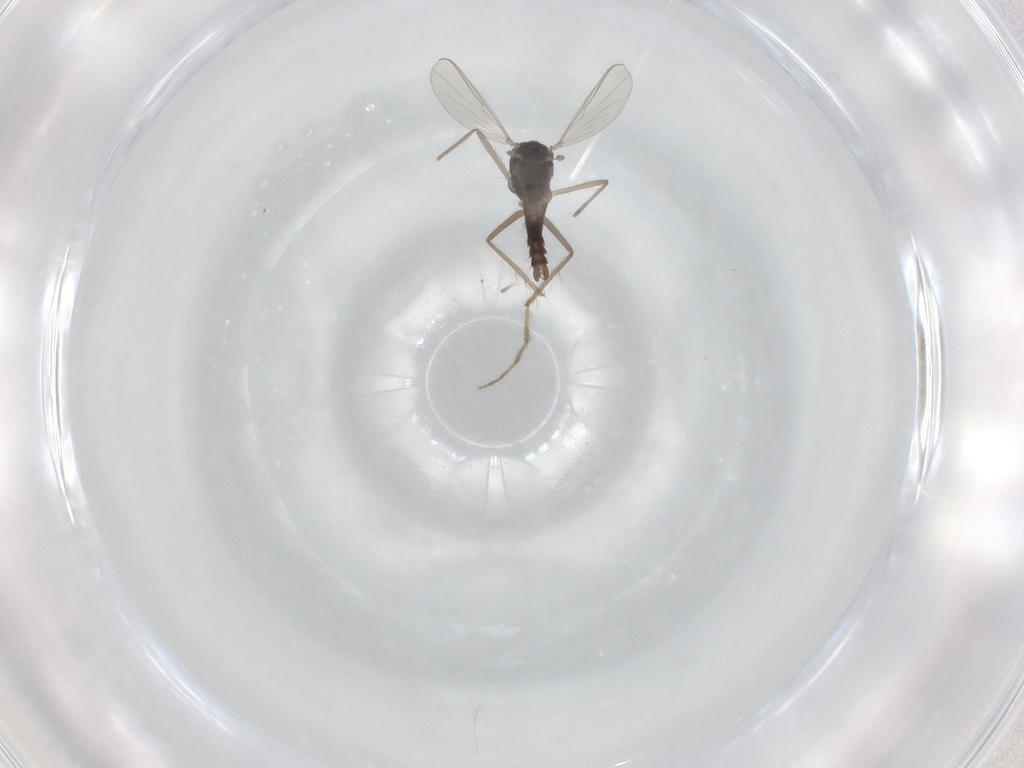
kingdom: Animalia
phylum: Arthropoda
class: Insecta
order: Diptera
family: Chironomidae
